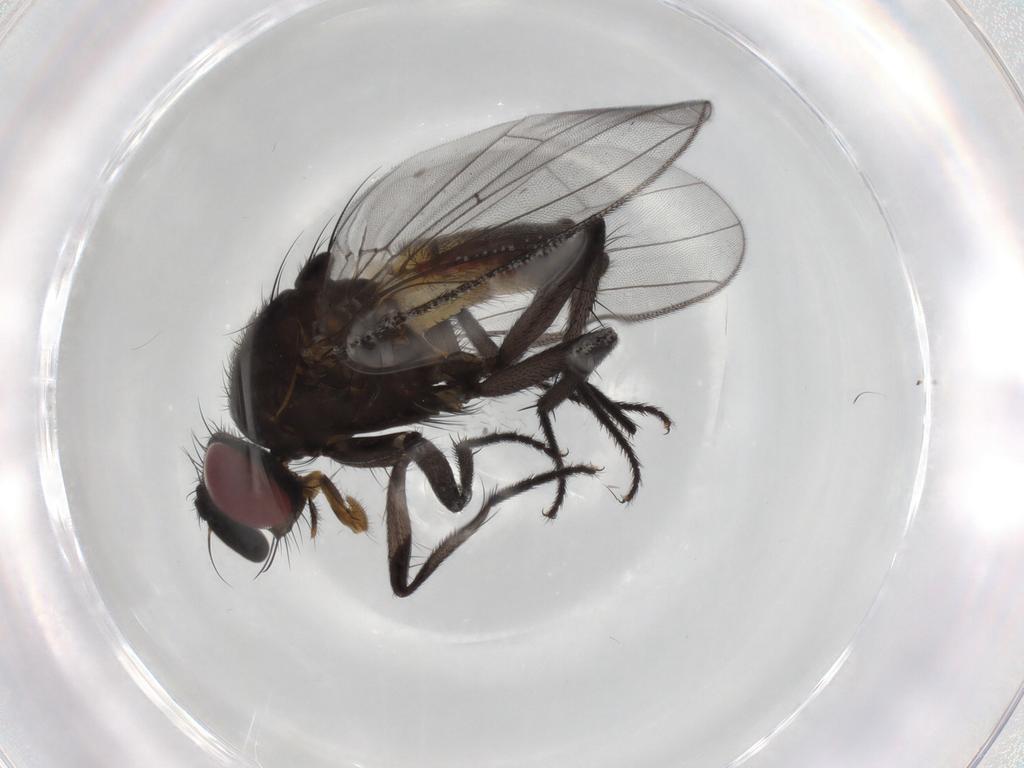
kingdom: Animalia
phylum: Arthropoda
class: Insecta
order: Diptera
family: Fannia
